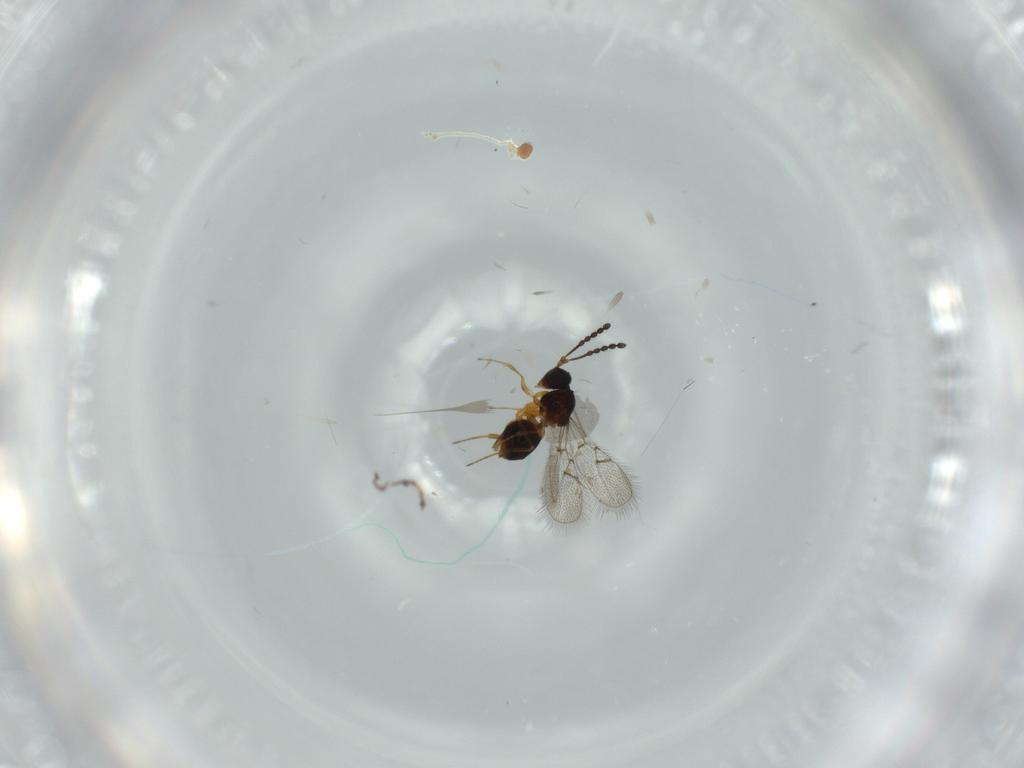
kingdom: Animalia
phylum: Arthropoda
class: Insecta
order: Hymenoptera
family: Figitidae
